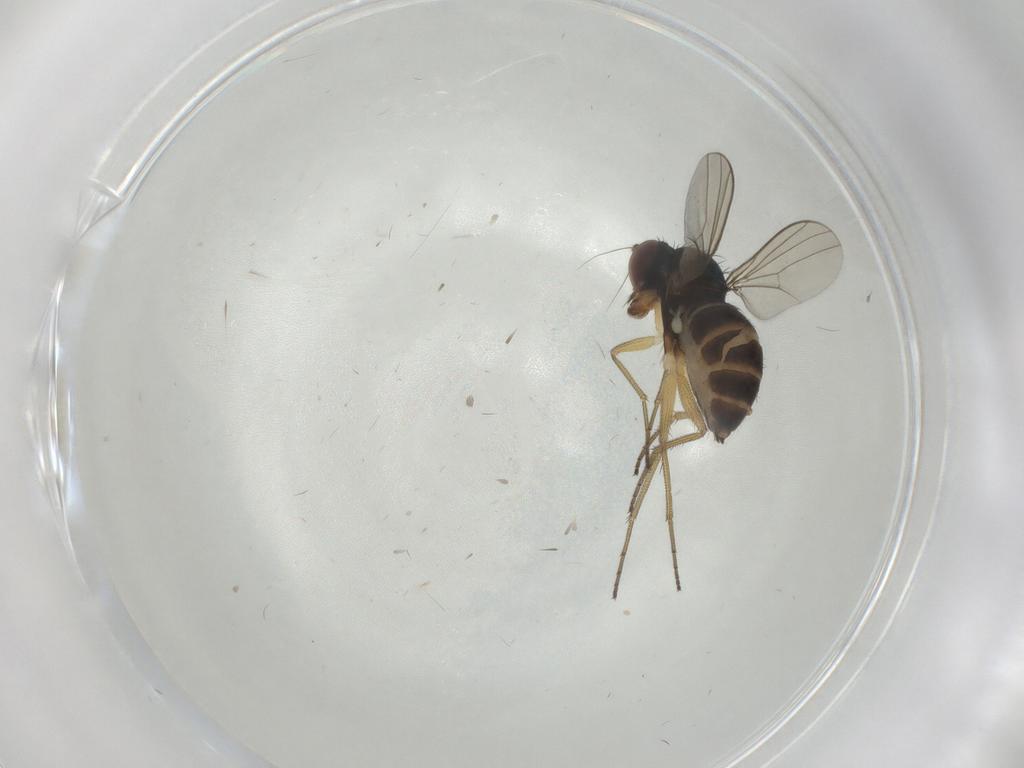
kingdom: Animalia
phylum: Arthropoda
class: Insecta
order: Diptera
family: Dolichopodidae
